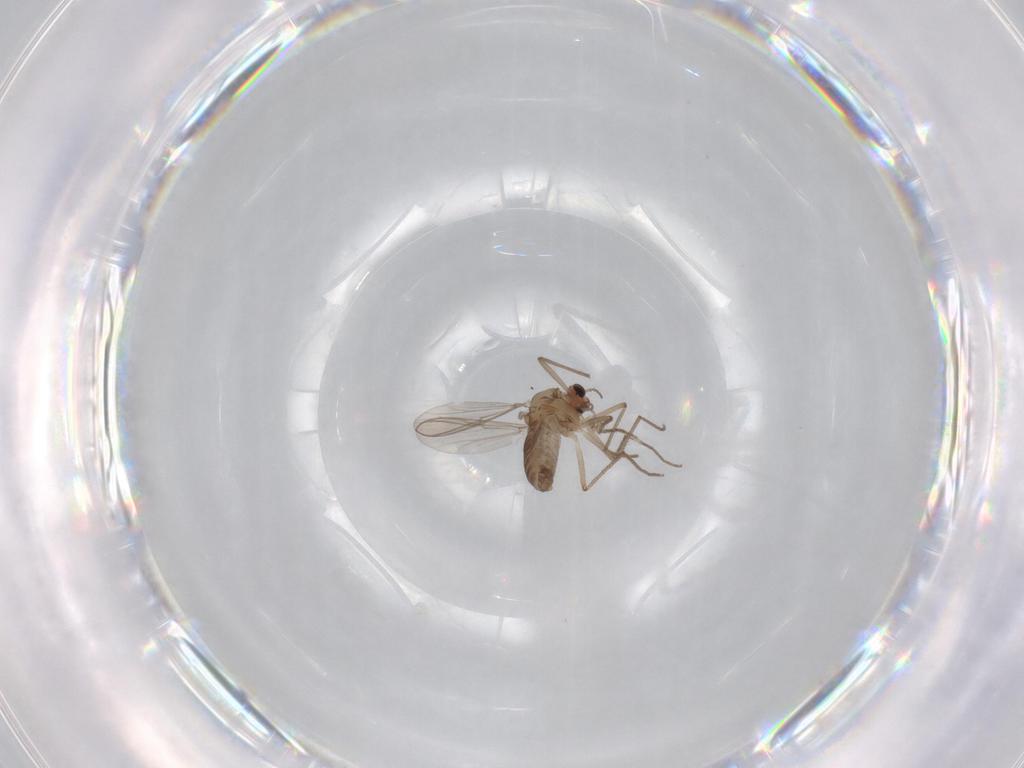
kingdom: Animalia
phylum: Arthropoda
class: Insecta
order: Diptera
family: Chironomidae
